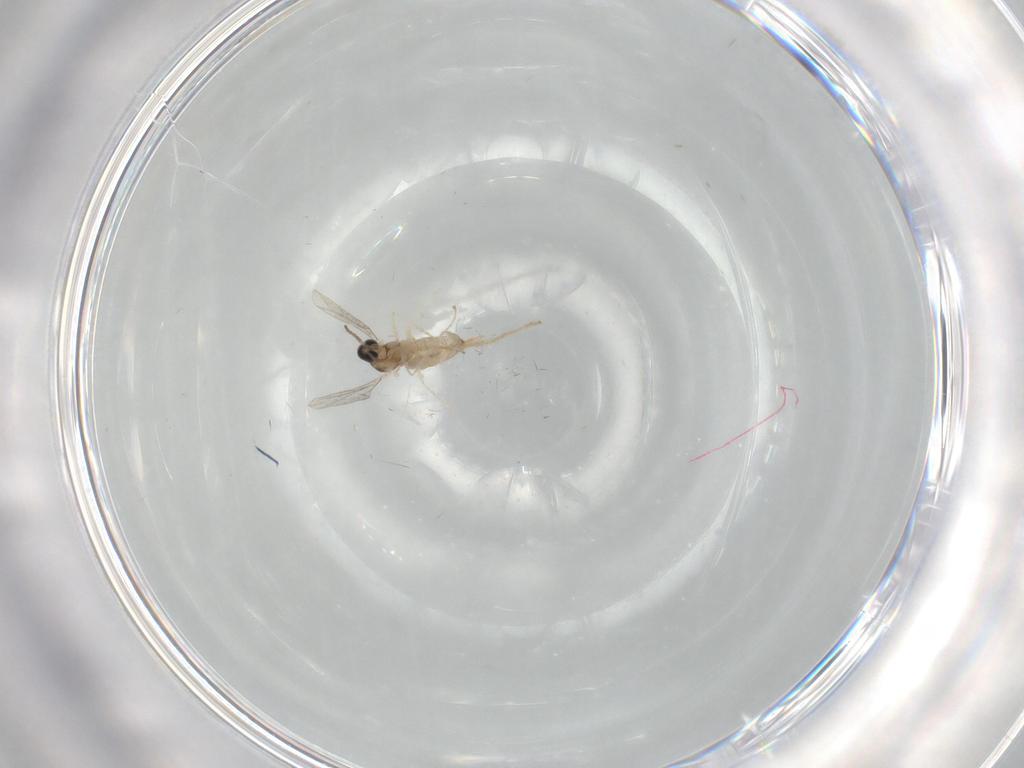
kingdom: Animalia
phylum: Arthropoda
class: Insecta
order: Diptera
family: Cecidomyiidae
